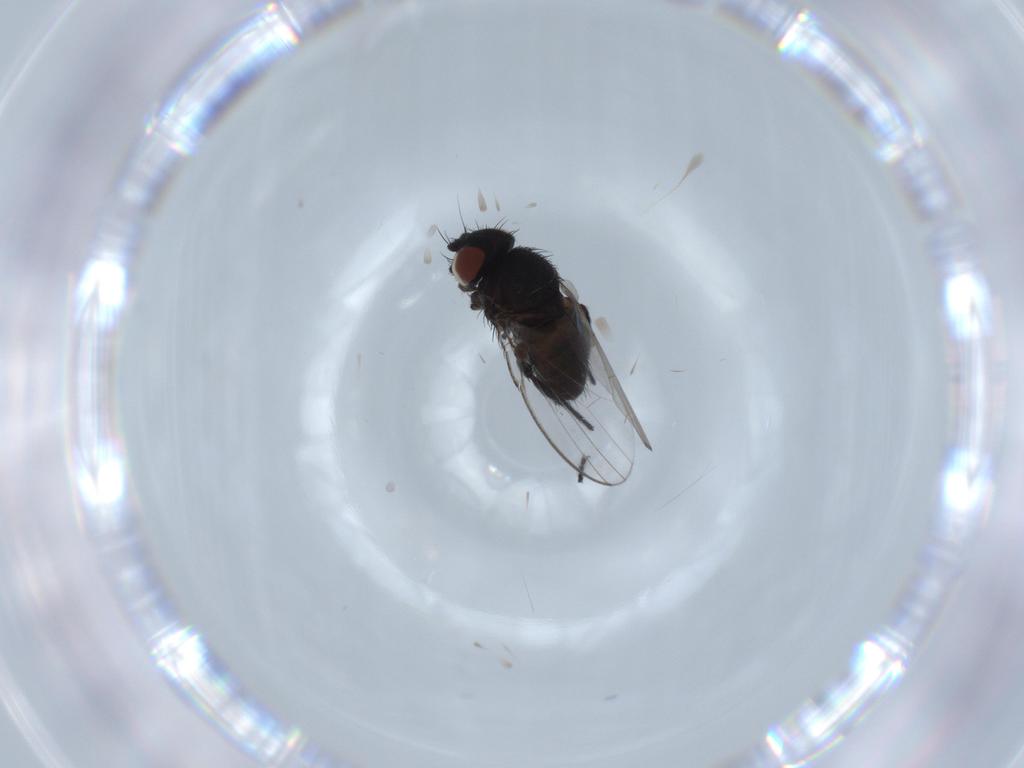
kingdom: Animalia
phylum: Arthropoda
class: Insecta
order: Diptera
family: Milichiidae
